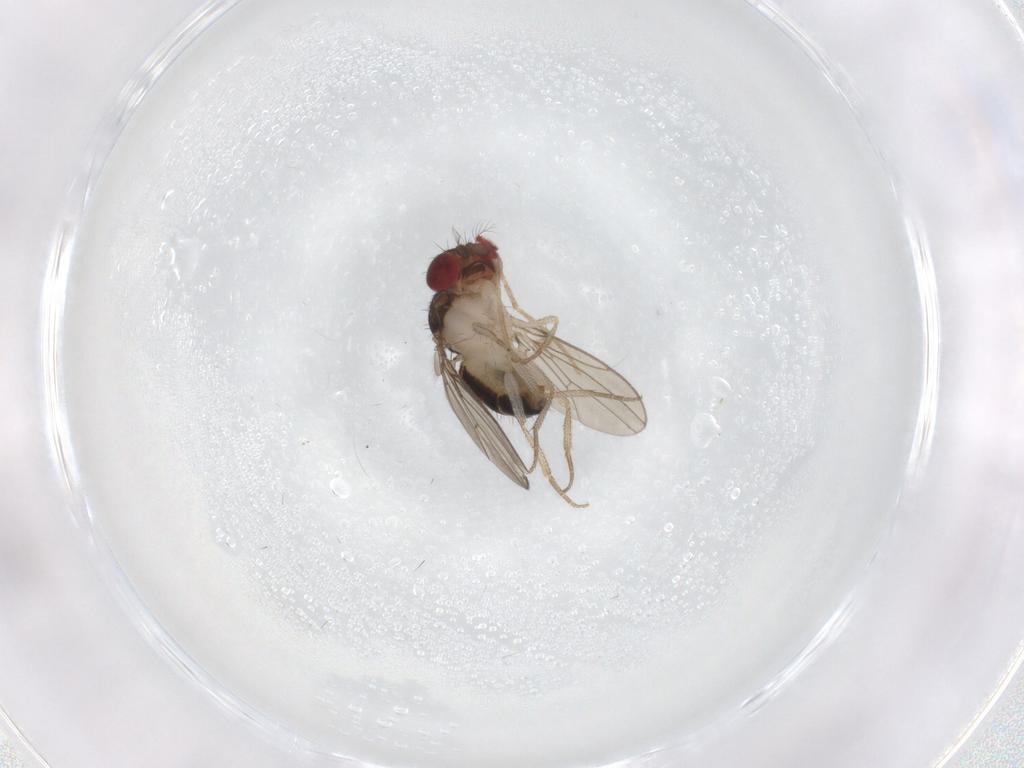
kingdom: Animalia
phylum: Arthropoda
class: Insecta
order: Diptera
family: Drosophilidae
